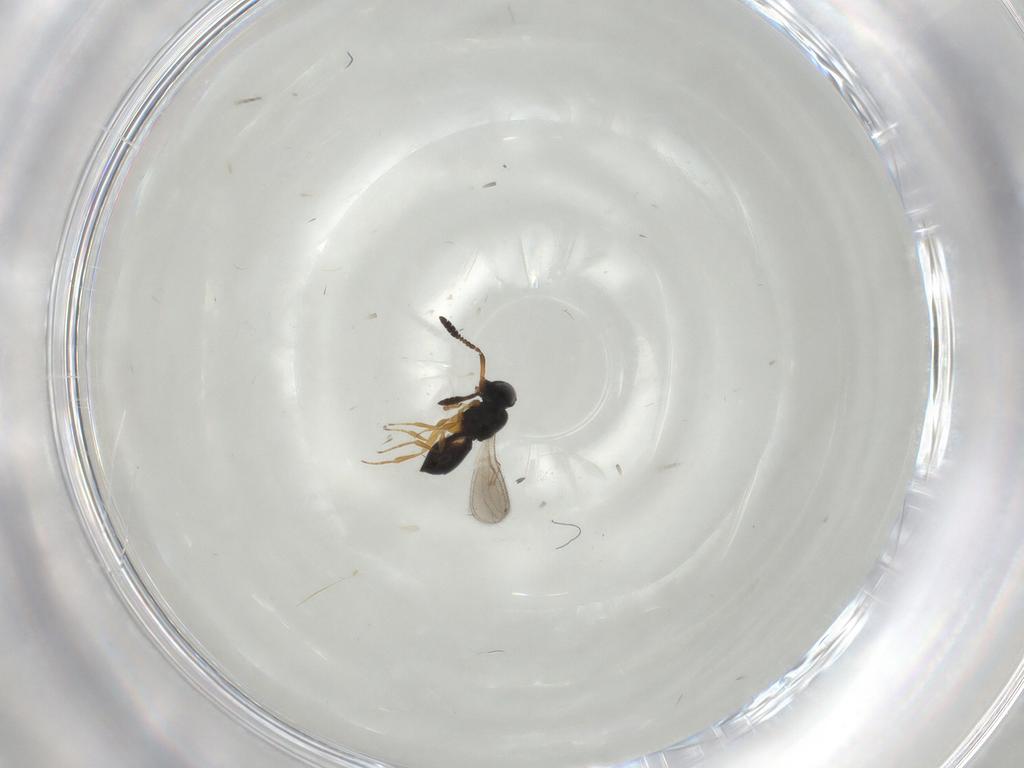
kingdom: Animalia
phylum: Arthropoda
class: Insecta
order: Hymenoptera
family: Scelionidae
